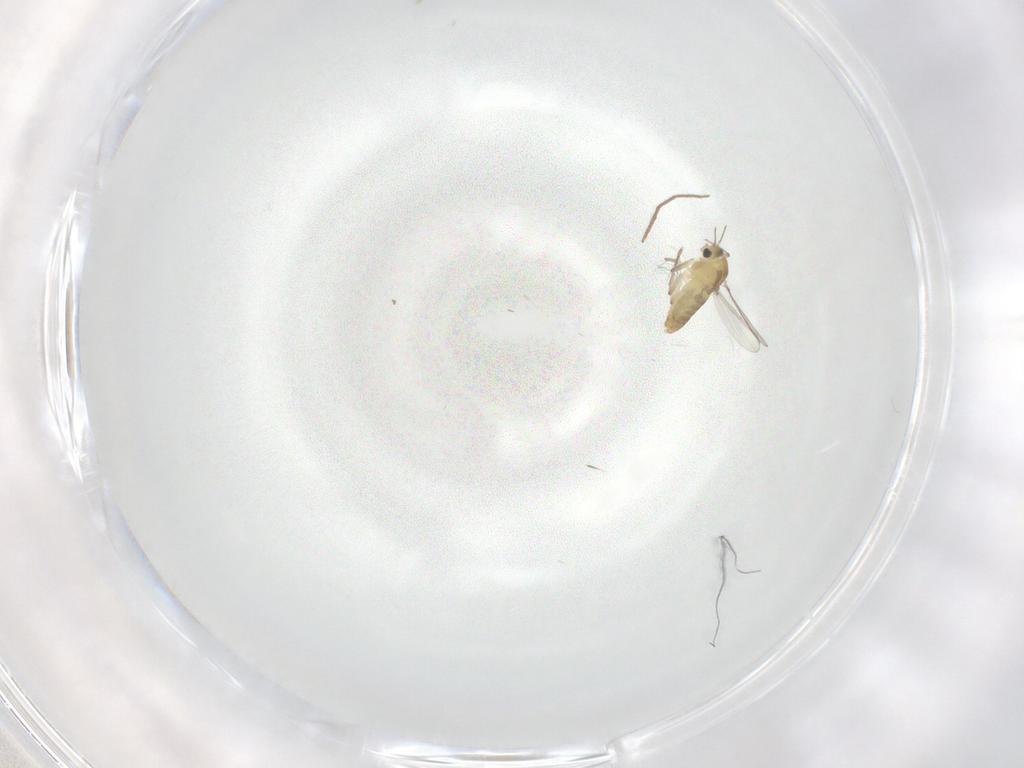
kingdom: Animalia
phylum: Arthropoda
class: Insecta
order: Diptera
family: Chironomidae
